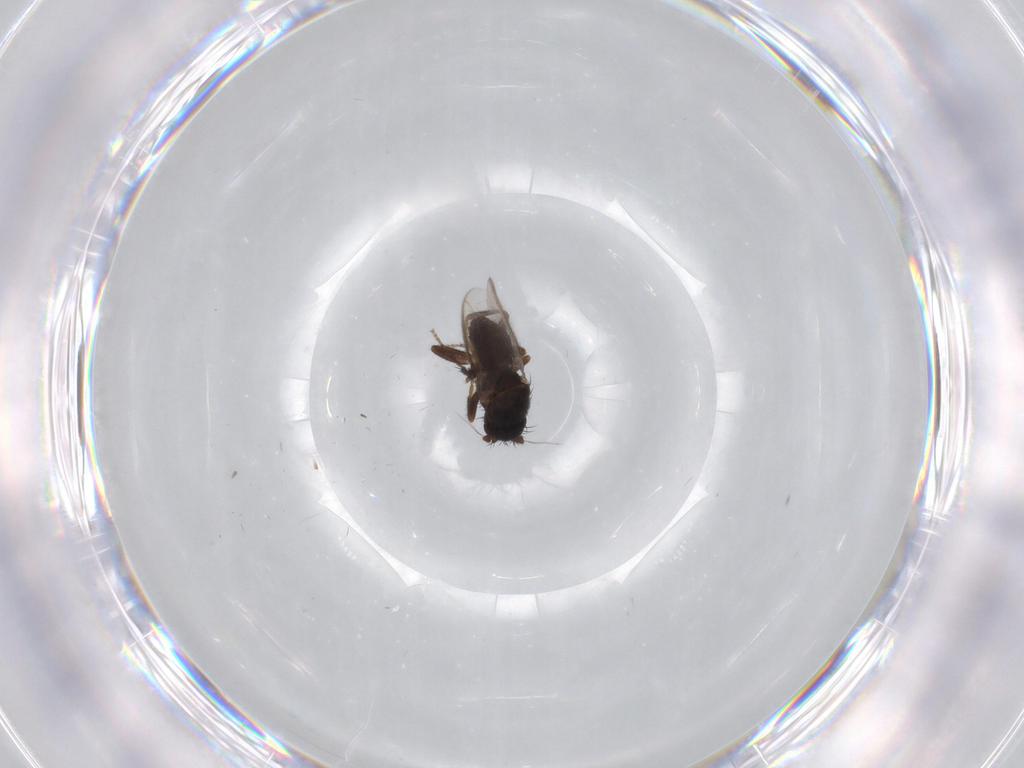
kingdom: Animalia
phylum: Arthropoda
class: Insecta
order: Diptera
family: Sphaeroceridae
